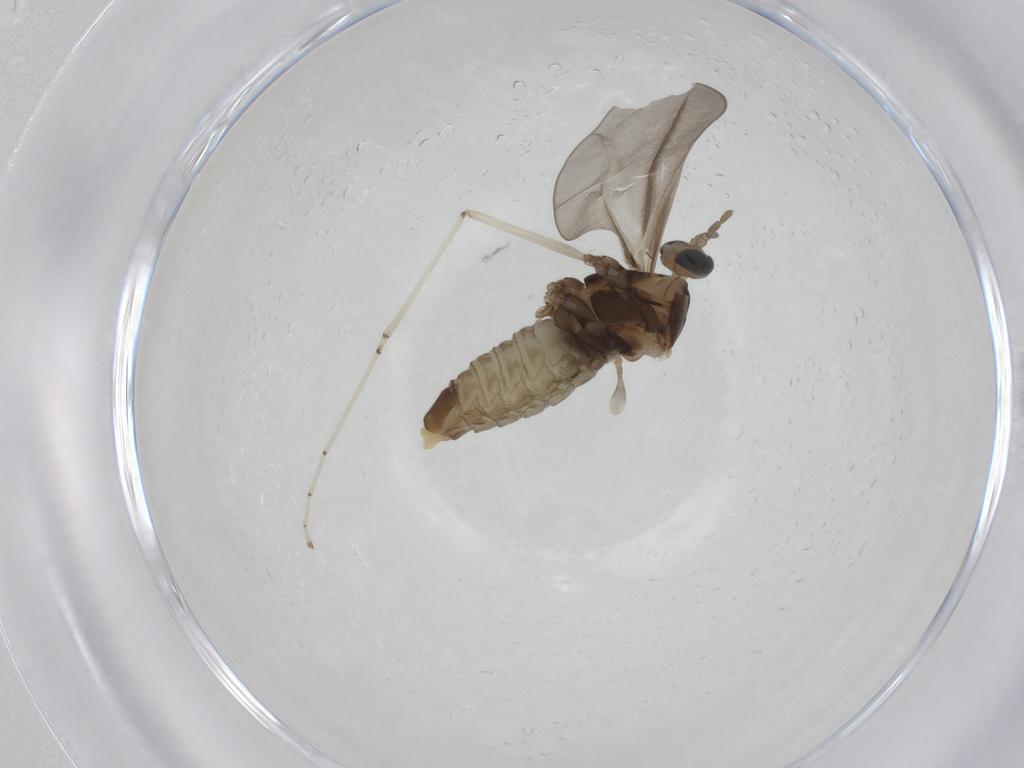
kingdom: Animalia
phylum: Arthropoda
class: Insecta
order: Diptera
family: Cecidomyiidae
